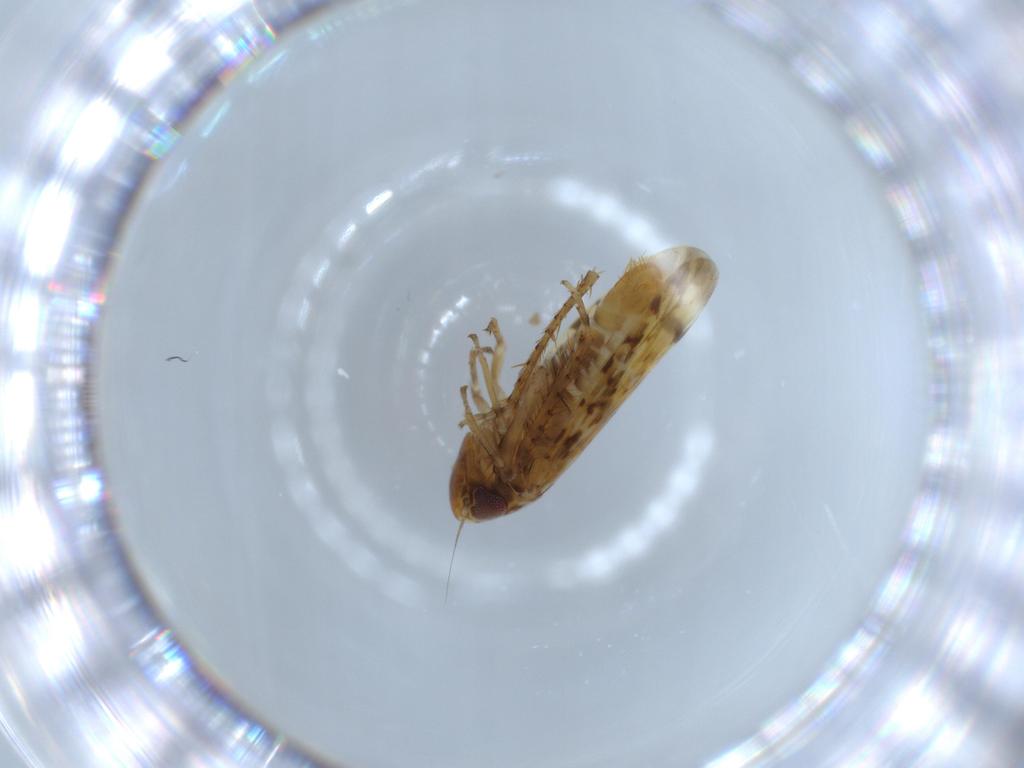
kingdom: Animalia
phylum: Arthropoda
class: Insecta
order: Hemiptera
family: Cicadellidae
